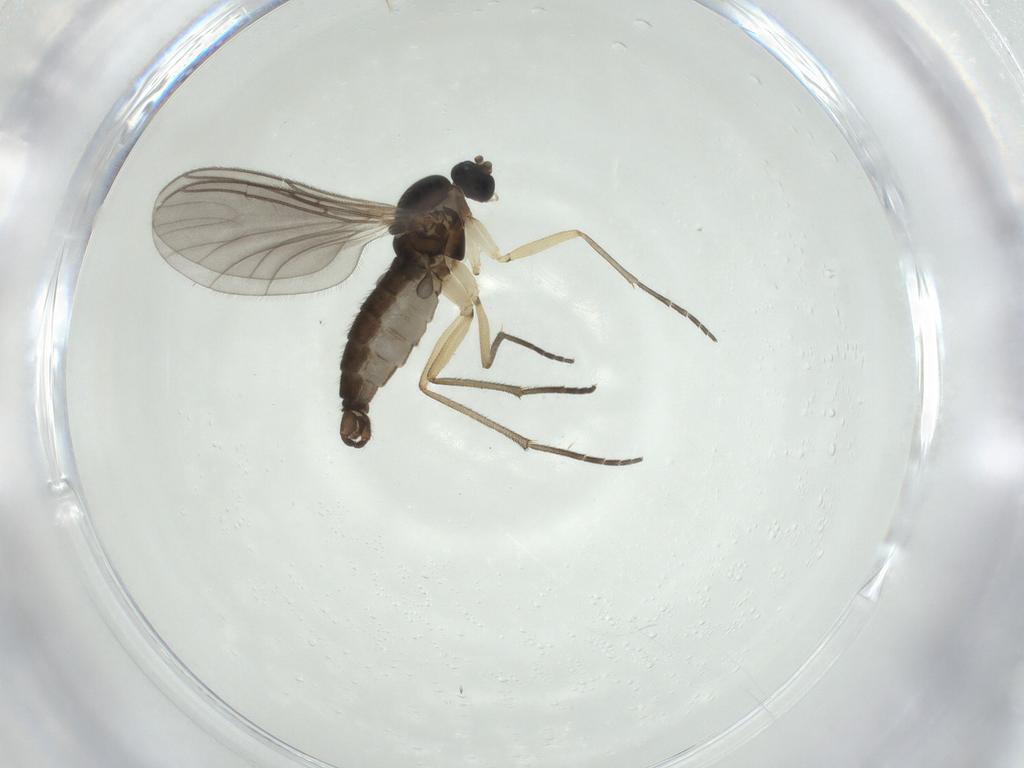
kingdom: Animalia
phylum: Arthropoda
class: Insecta
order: Diptera
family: Sciaridae
